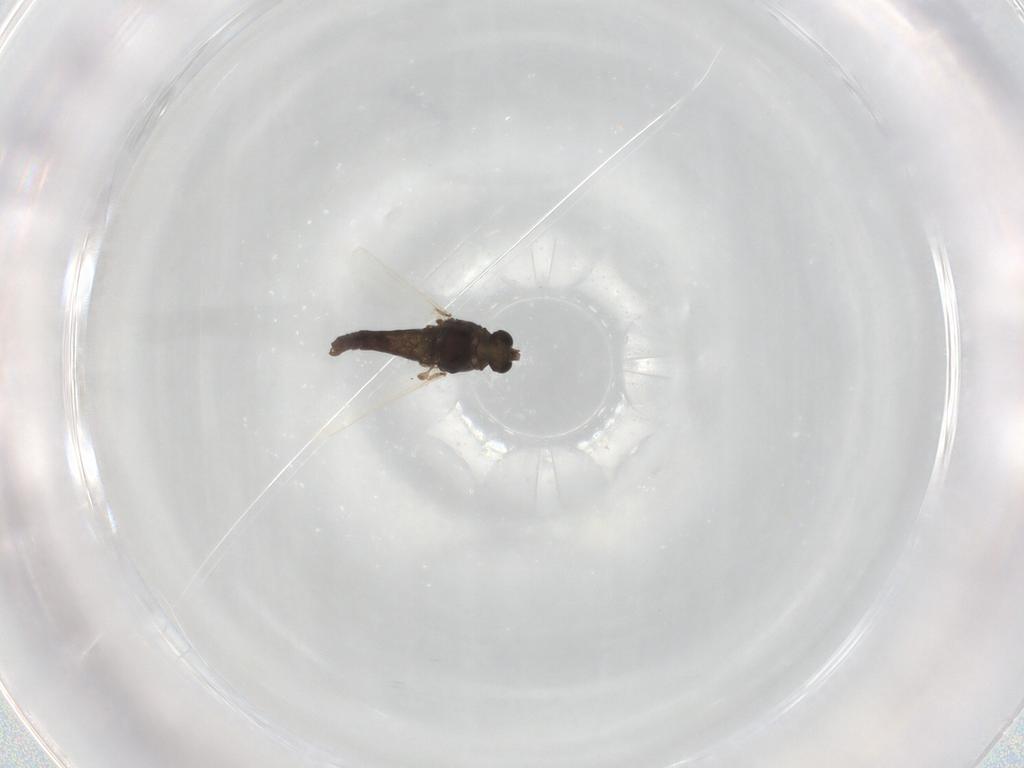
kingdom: Animalia
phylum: Arthropoda
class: Insecta
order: Diptera
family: Chironomidae
